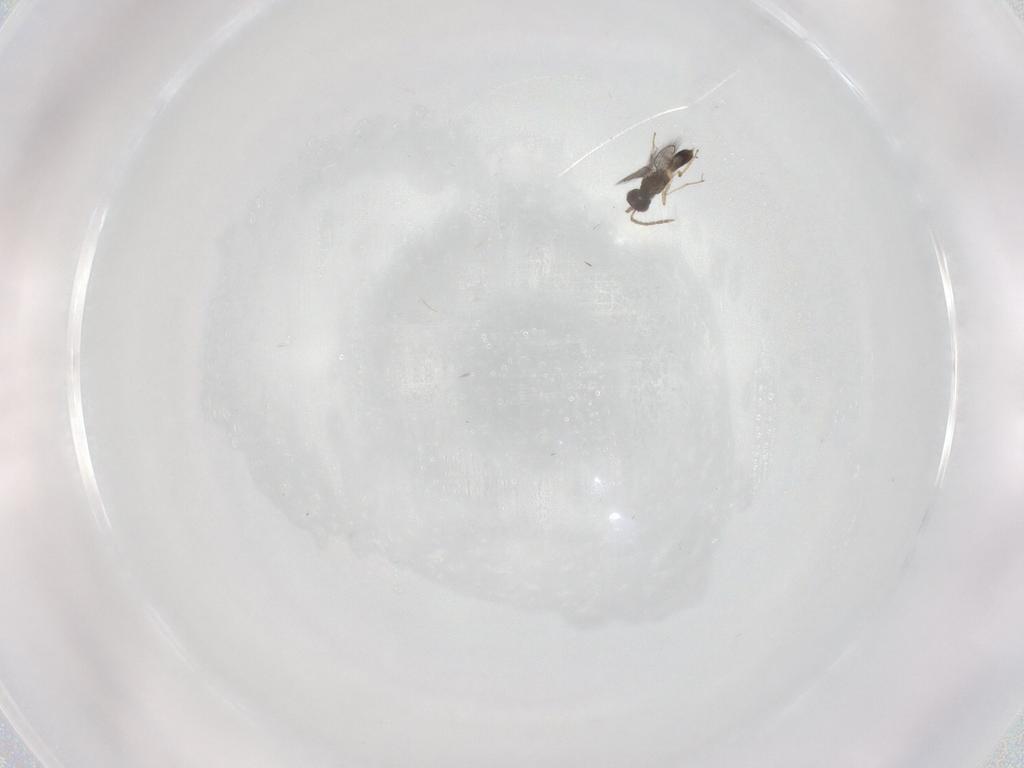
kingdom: Animalia
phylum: Arthropoda
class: Insecta
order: Hymenoptera
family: Eulophidae
